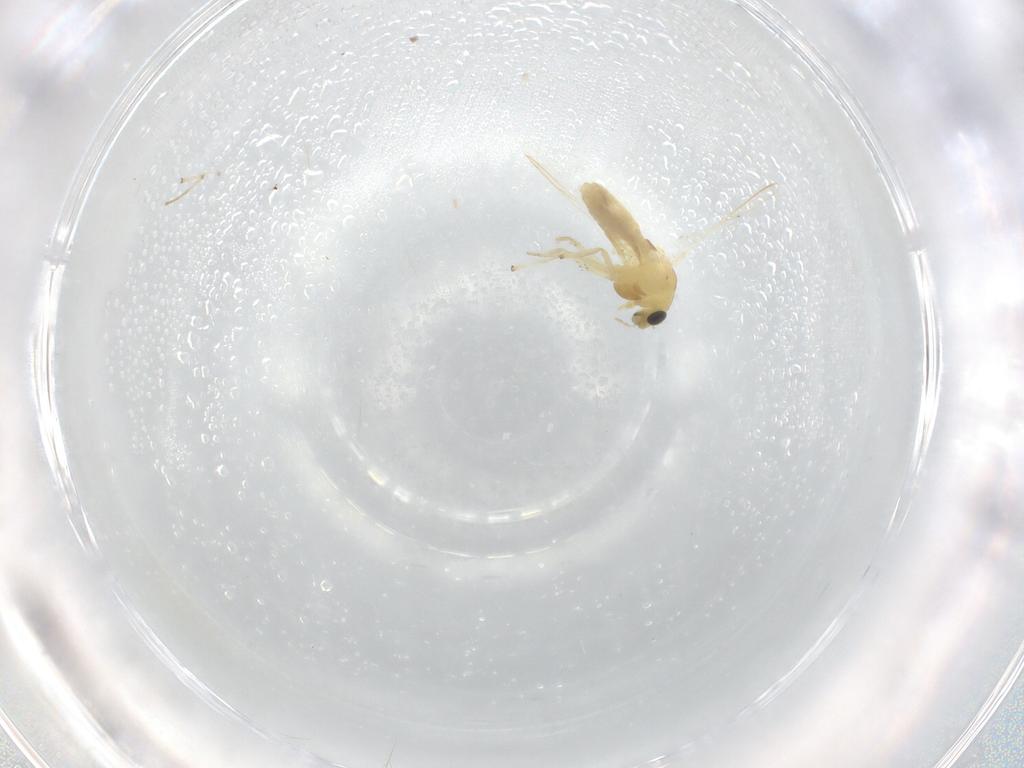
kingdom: Animalia
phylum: Arthropoda
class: Insecta
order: Diptera
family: Chironomidae
